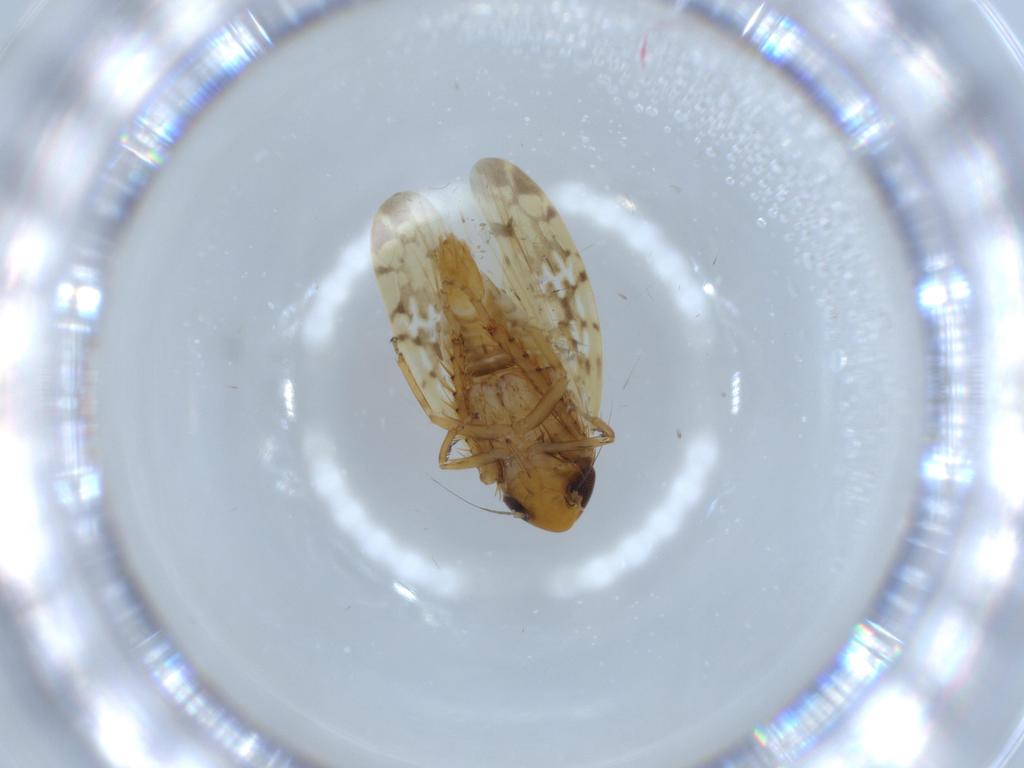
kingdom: Animalia
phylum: Arthropoda
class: Insecta
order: Hemiptera
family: Cicadellidae
